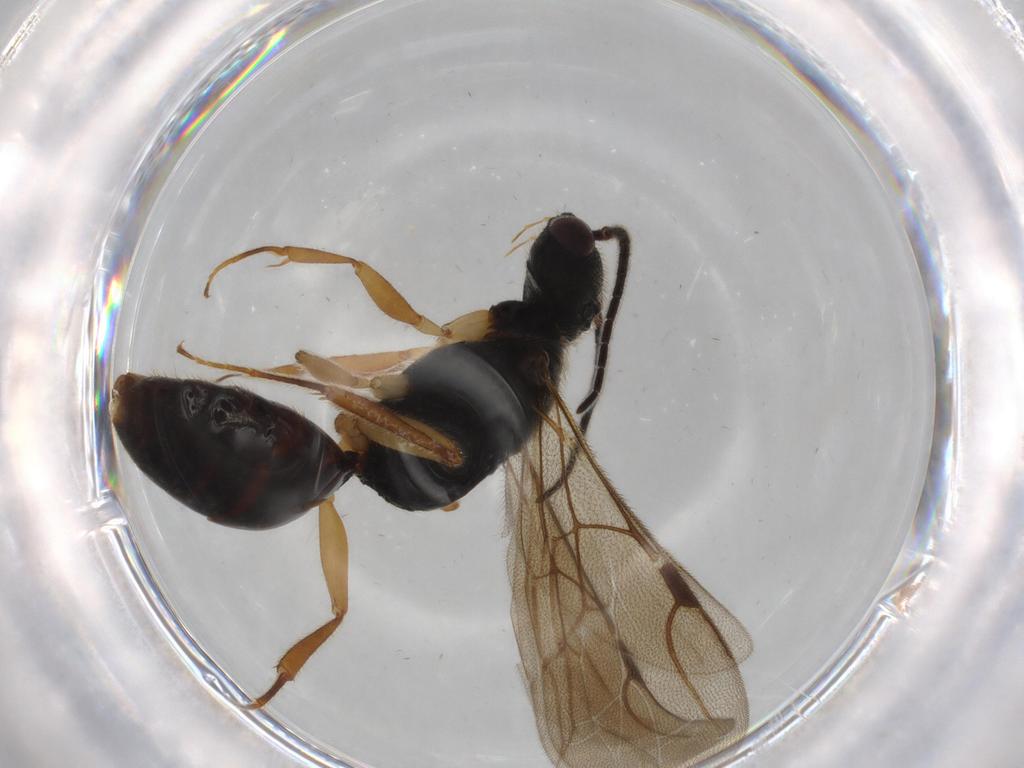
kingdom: Animalia
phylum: Arthropoda
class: Insecta
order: Hymenoptera
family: Bethylidae
